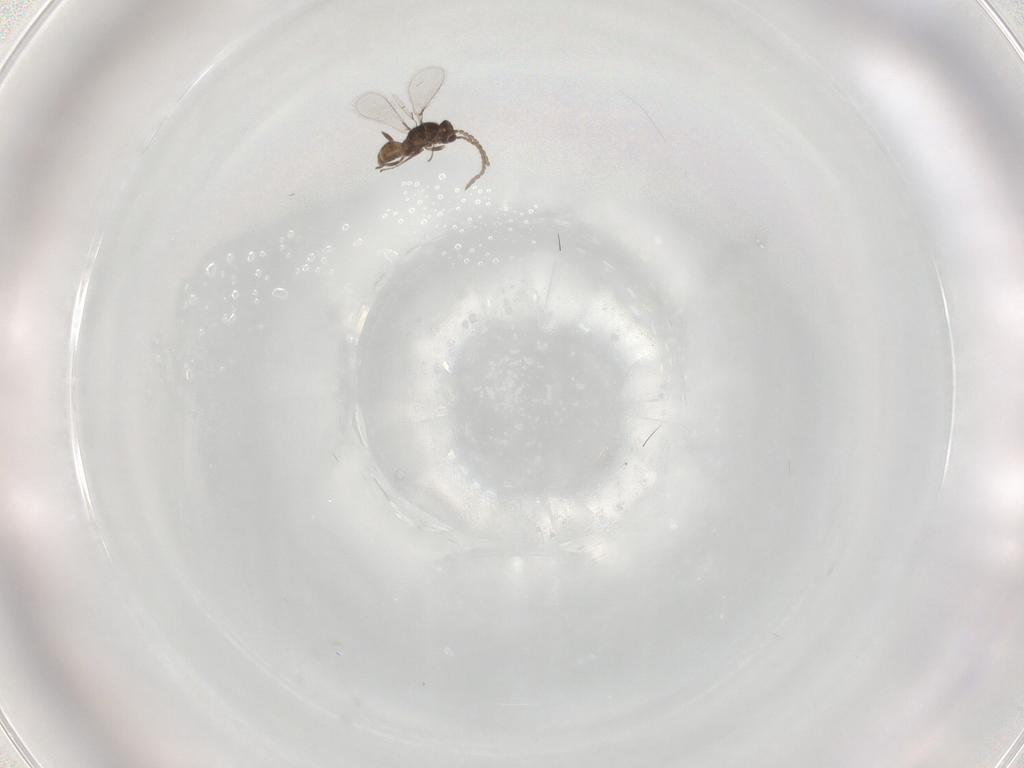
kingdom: Animalia
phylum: Arthropoda
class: Insecta
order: Hymenoptera
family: Mymaridae
